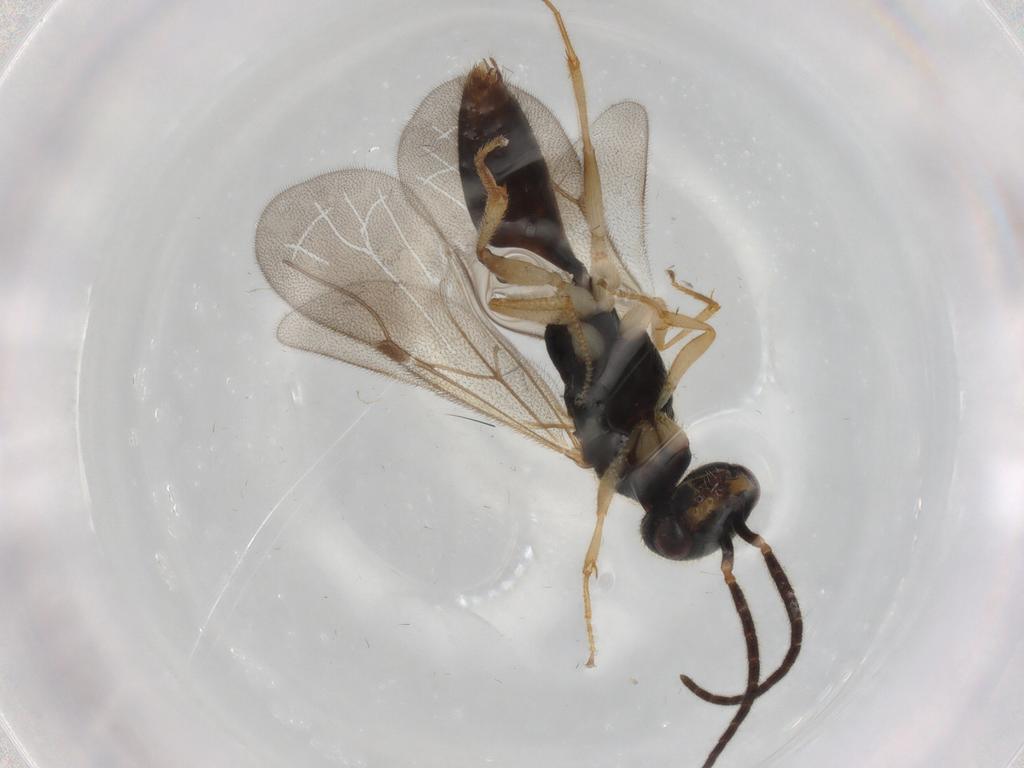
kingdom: Animalia
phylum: Arthropoda
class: Insecta
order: Hymenoptera
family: Bethylidae
